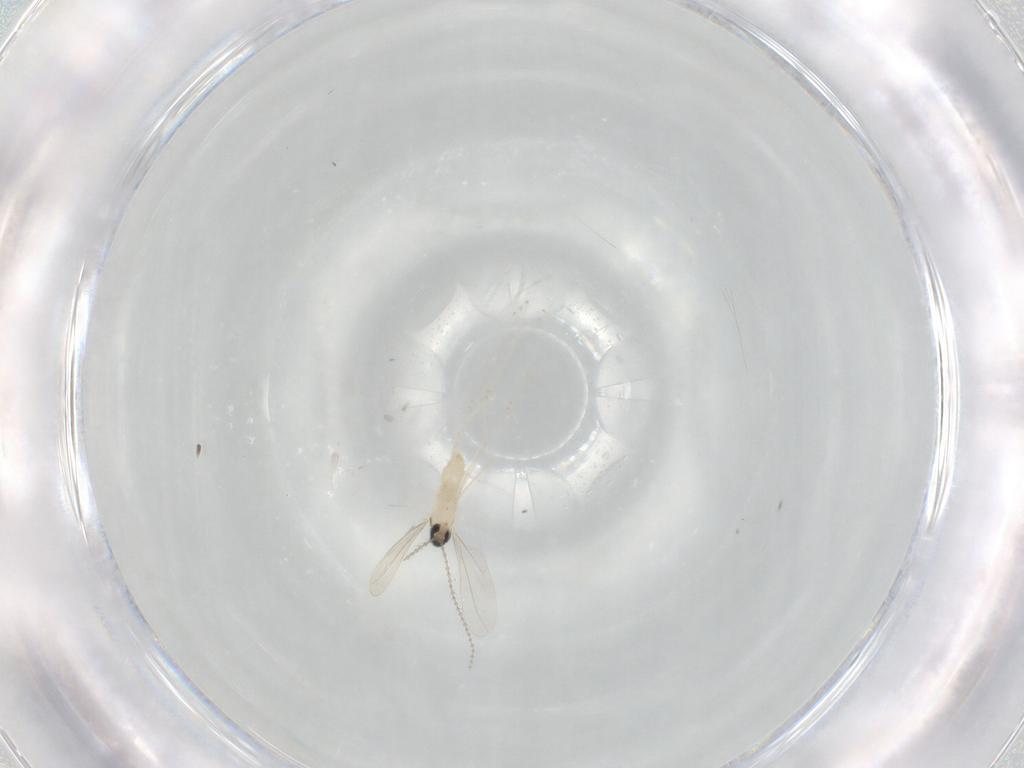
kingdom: Animalia
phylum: Arthropoda
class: Insecta
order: Diptera
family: Cecidomyiidae
